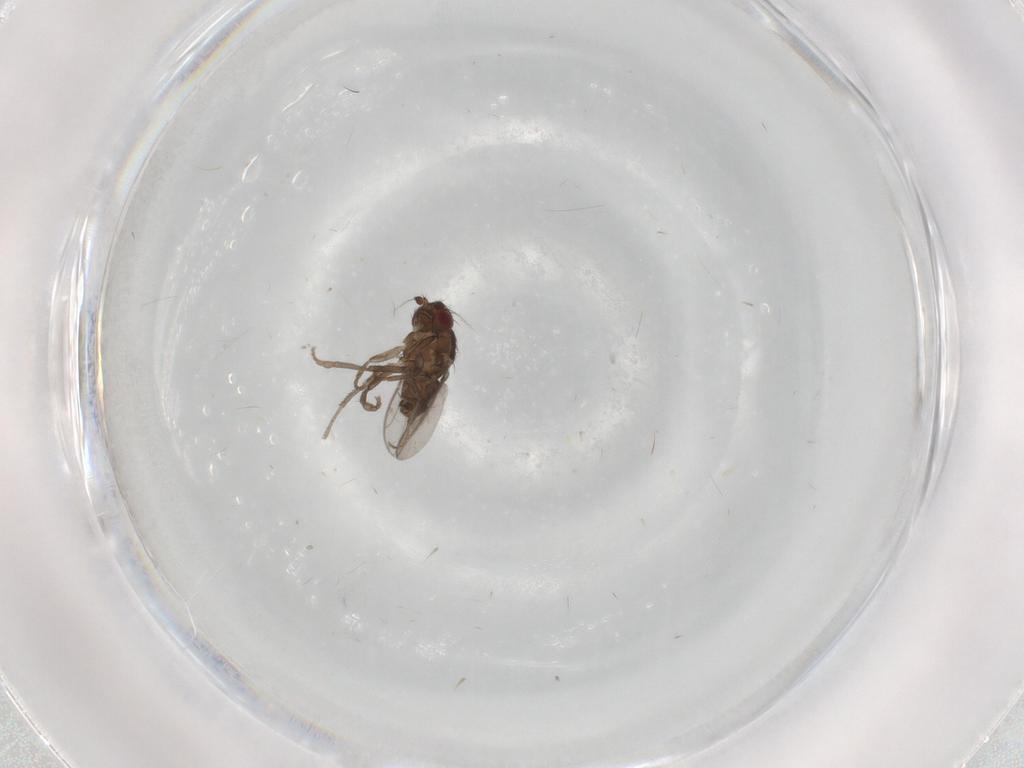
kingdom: Animalia
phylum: Arthropoda
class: Insecta
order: Diptera
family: Sphaeroceridae
